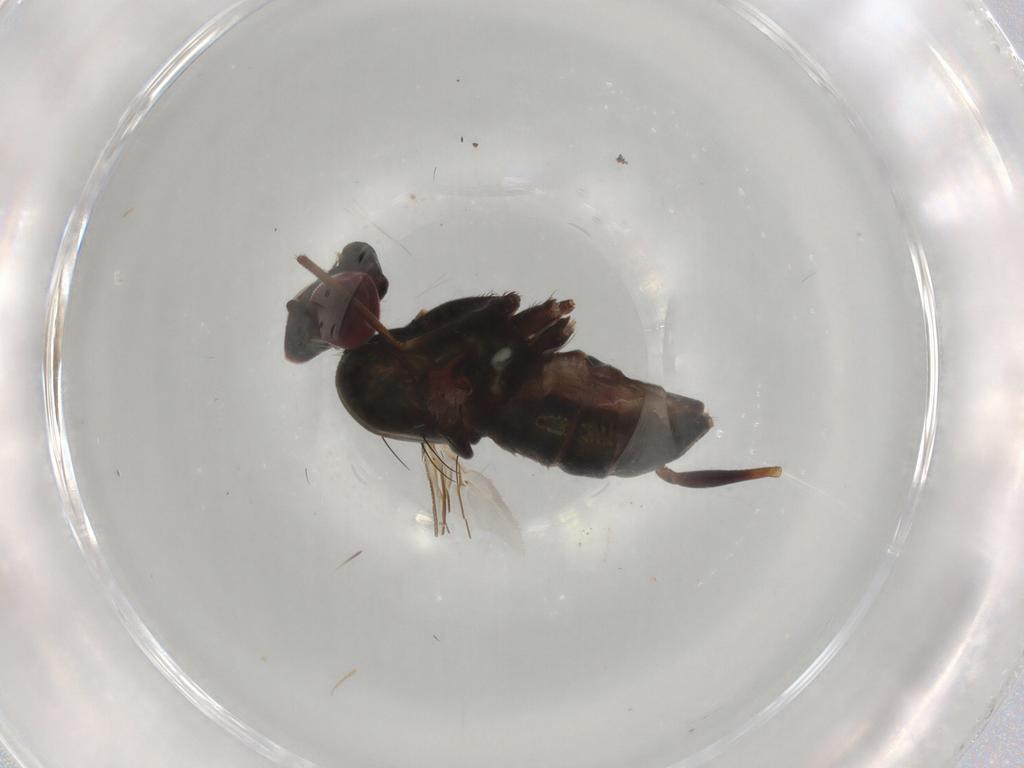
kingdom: Animalia
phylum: Arthropoda
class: Insecta
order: Diptera
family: Dolichopodidae
